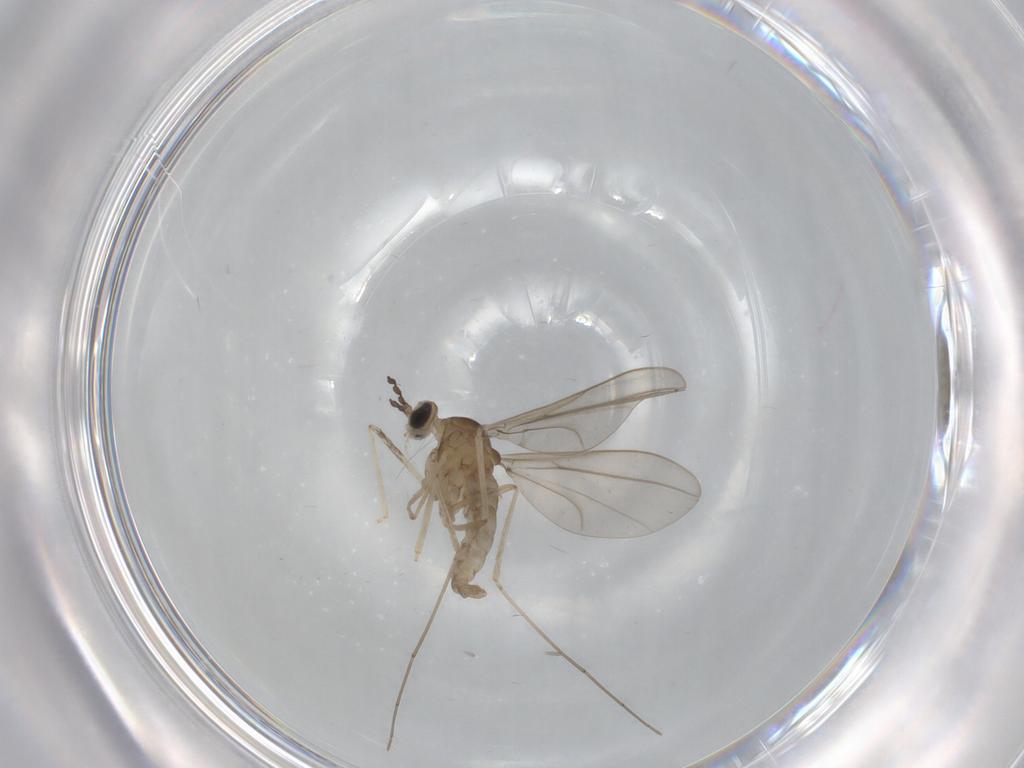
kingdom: Animalia
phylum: Arthropoda
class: Insecta
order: Diptera
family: Cecidomyiidae
